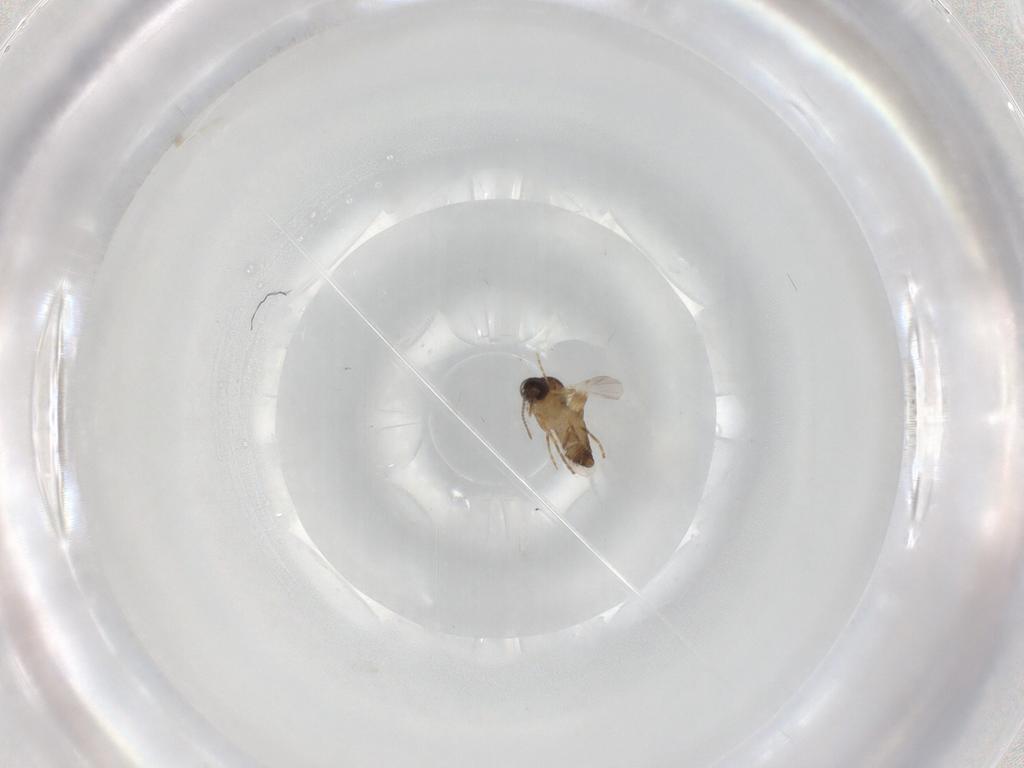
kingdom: Animalia
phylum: Arthropoda
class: Insecta
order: Diptera
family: Ceratopogonidae
